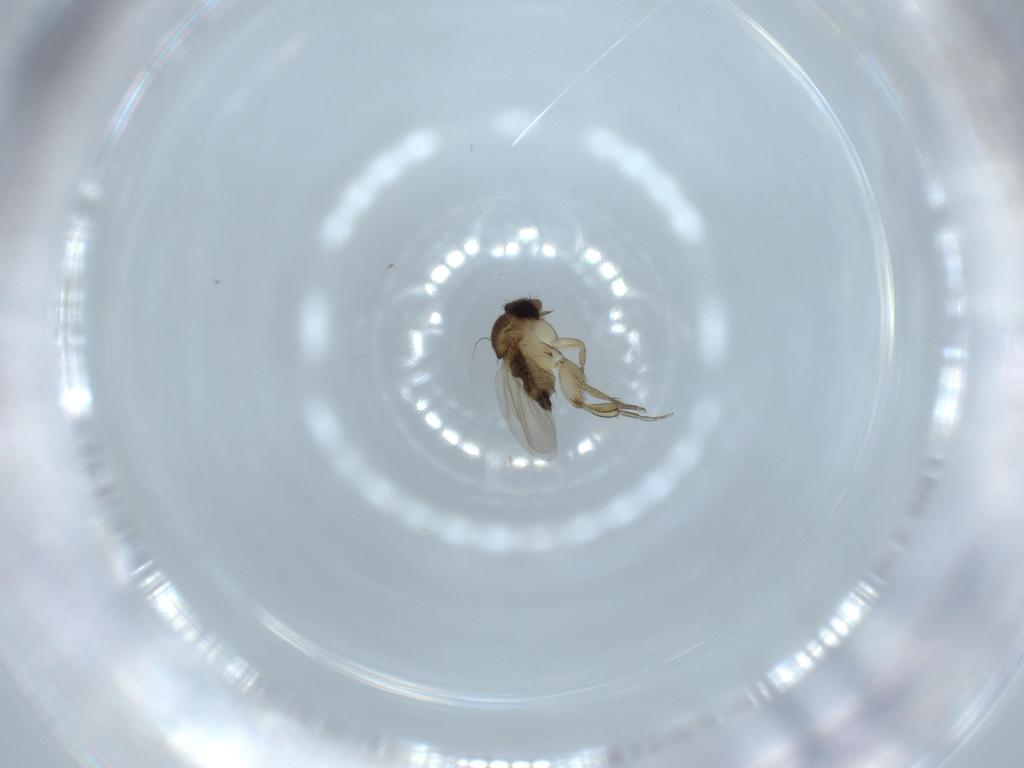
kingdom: Animalia
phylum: Arthropoda
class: Insecta
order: Diptera
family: Phoridae
